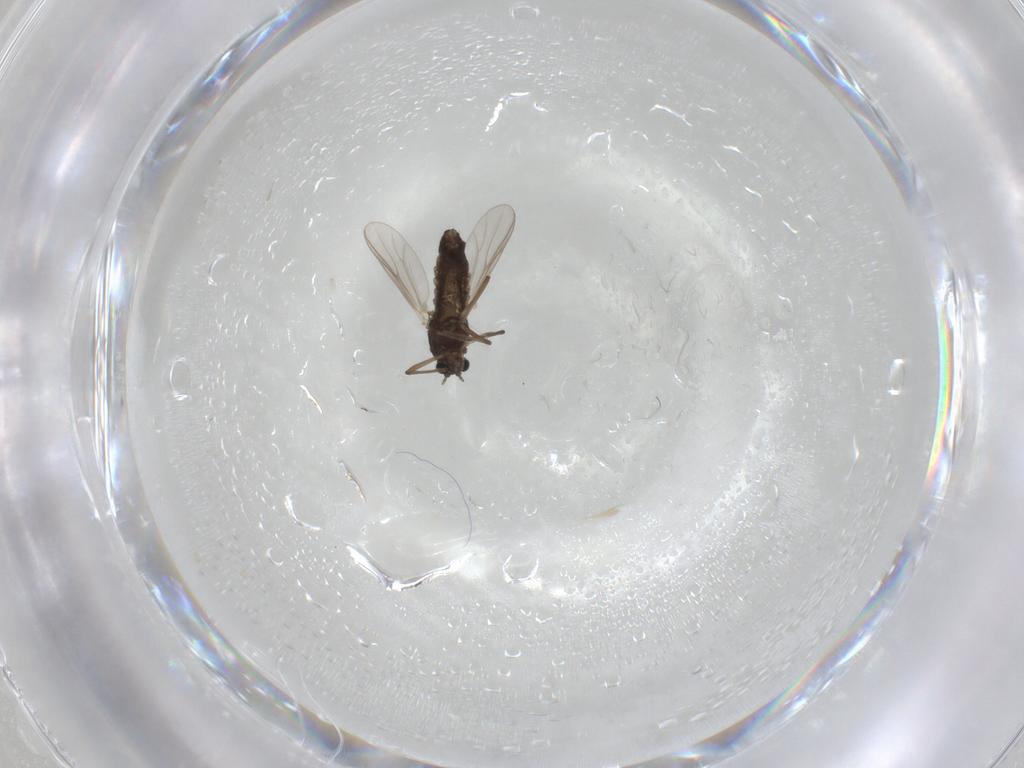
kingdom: Animalia
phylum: Arthropoda
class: Insecta
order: Diptera
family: Chironomidae
